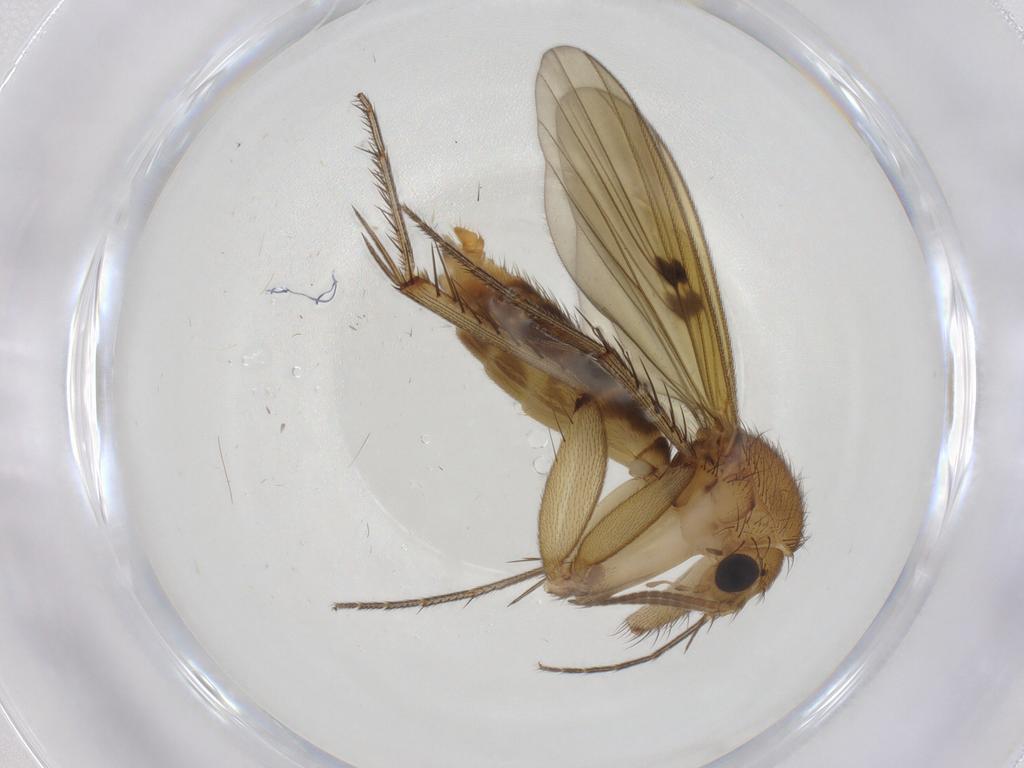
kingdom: Animalia
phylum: Arthropoda
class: Insecta
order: Diptera
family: Mycetophilidae
